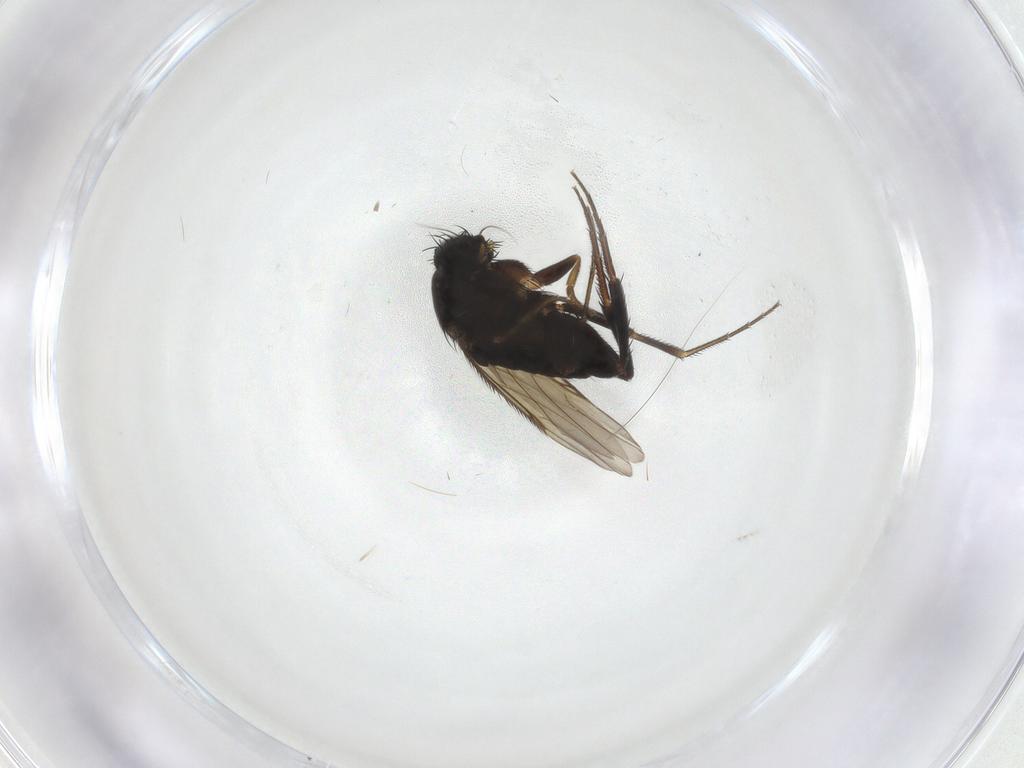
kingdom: Animalia
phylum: Arthropoda
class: Insecta
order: Diptera
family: Phoridae
